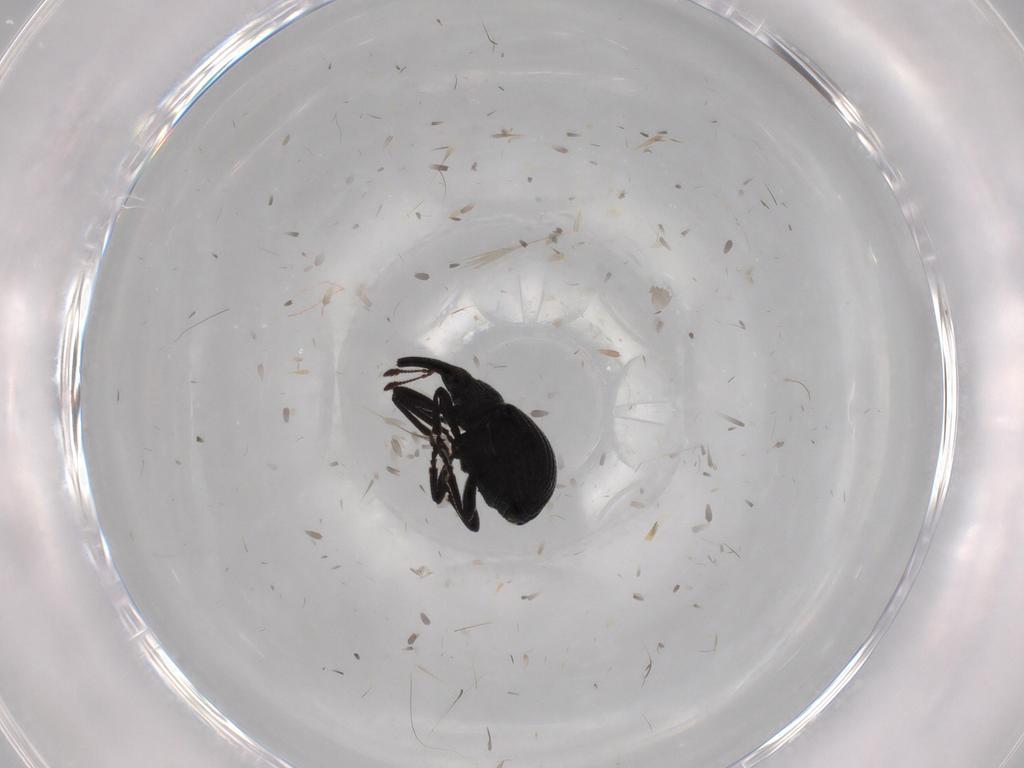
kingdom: Animalia
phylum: Arthropoda
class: Insecta
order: Coleoptera
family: Brentidae
